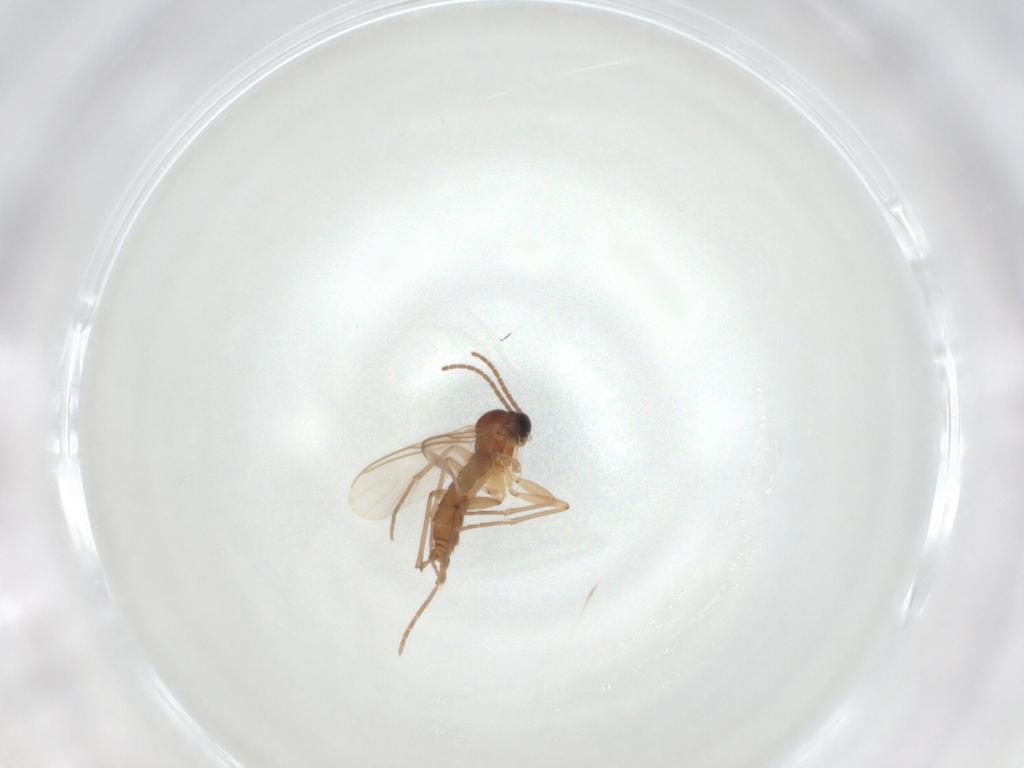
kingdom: Animalia
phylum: Arthropoda
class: Insecta
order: Diptera
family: Sciaridae
